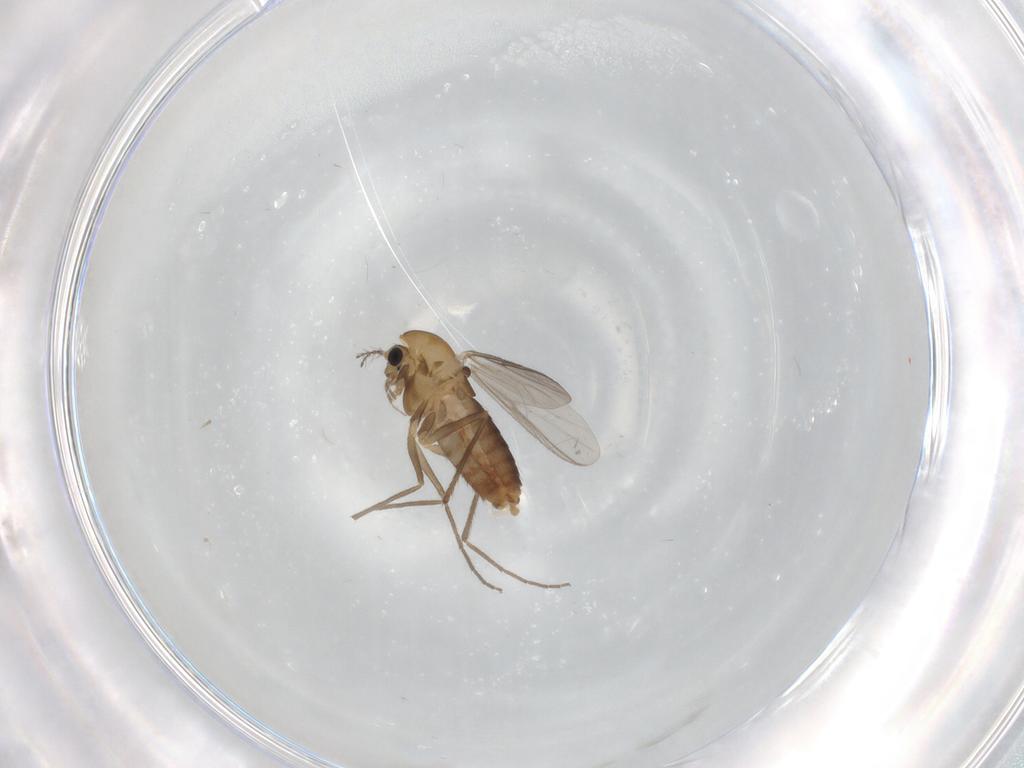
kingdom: Animalia
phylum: Arthropoda
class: Insecta
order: Diptera
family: Chironomidae
